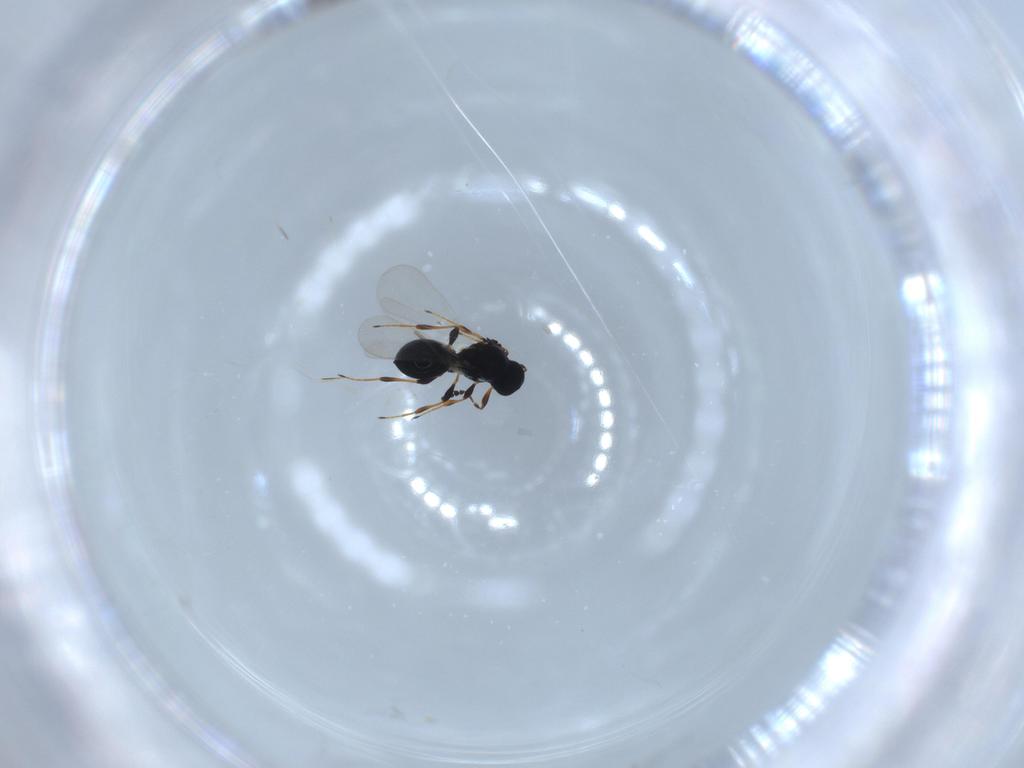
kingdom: Animalia
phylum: Arthropoda
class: Insecta
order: Hymenoptera
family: Platygastridae
